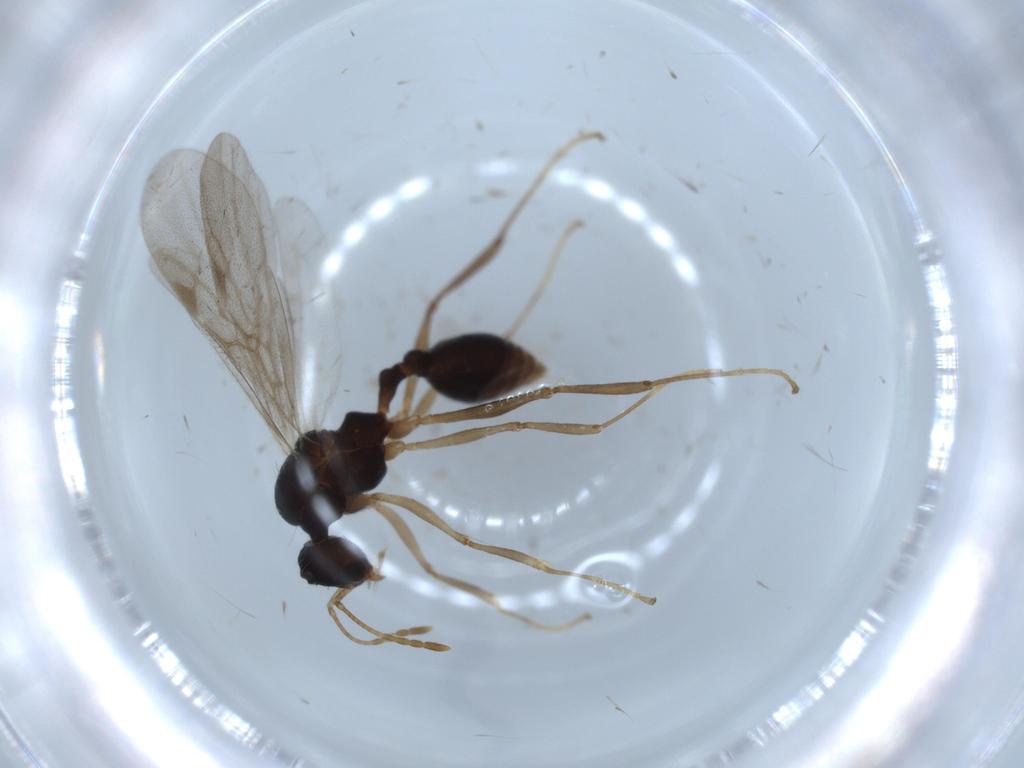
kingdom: Animalia
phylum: Arthropoda
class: Insecta
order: Hymenoptera
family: Formicidae
